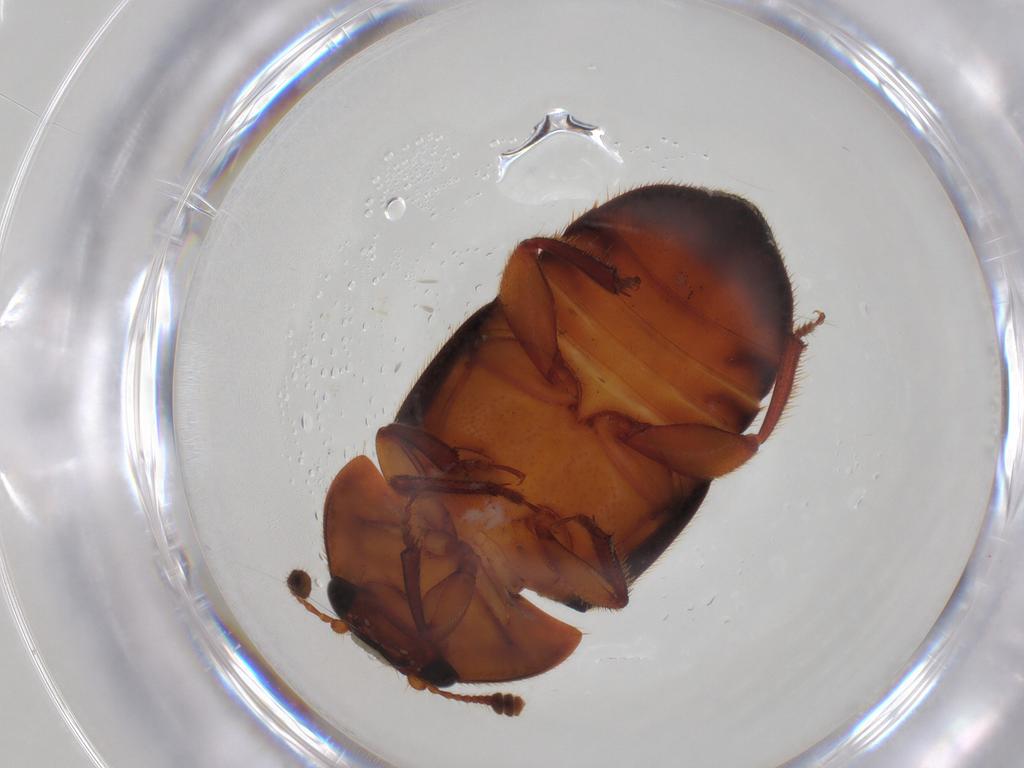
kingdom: Animalia
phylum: Arthropoda
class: Insecta
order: Coleoptera
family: Nitidulidae
